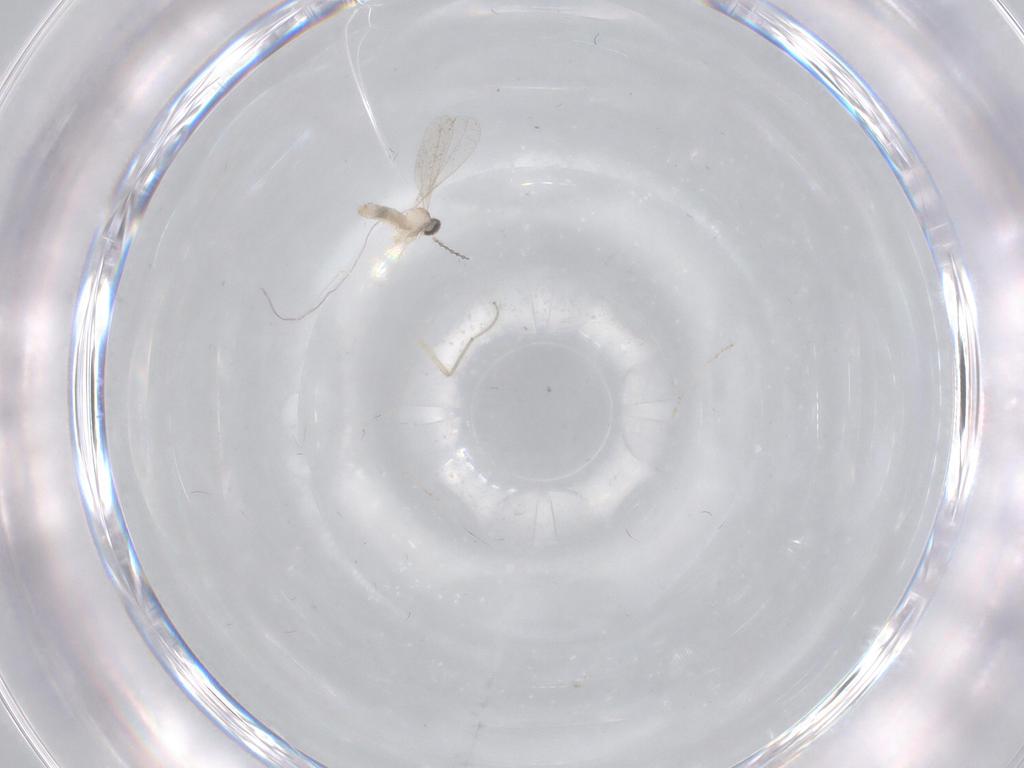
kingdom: Animalia
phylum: Arthropoda
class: Insecta
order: Diptera
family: Chironomidae
